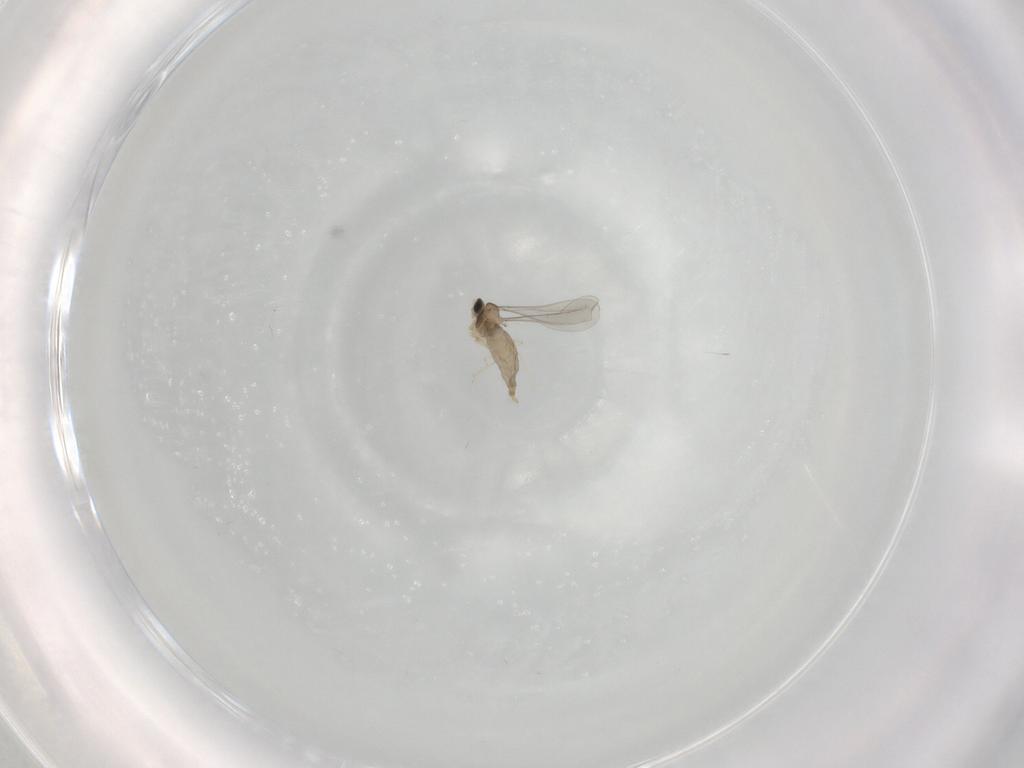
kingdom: Animalia
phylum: Arthropoda
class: Insecta
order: Diptera
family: Cecidomyiidae
